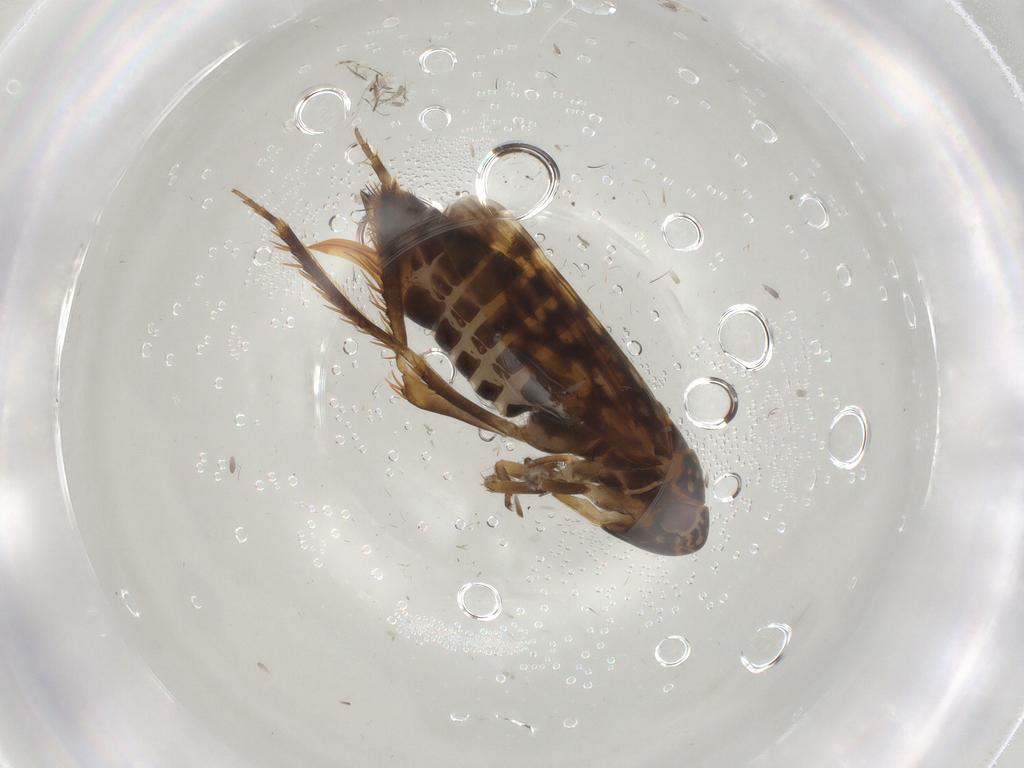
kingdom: Animalia
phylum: Arthropoda
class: Insecta
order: Hemiptera
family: Cicadellidae
